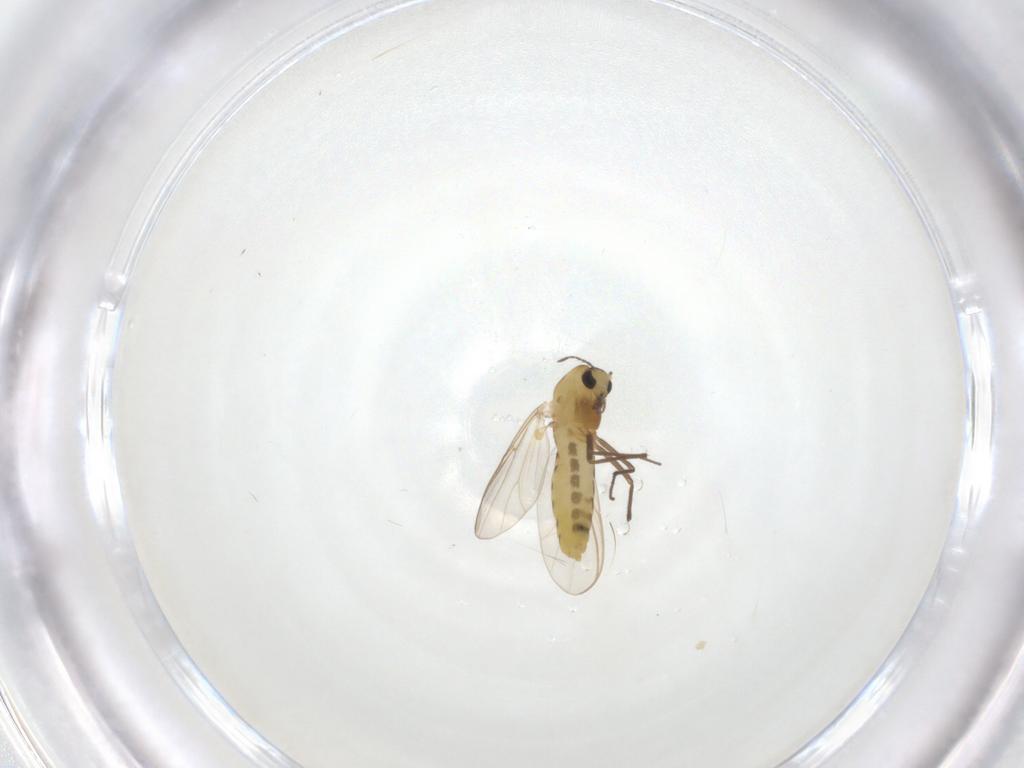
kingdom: Animalia
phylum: Arthropoda
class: Insecta
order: Diptera
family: Chironomidae
